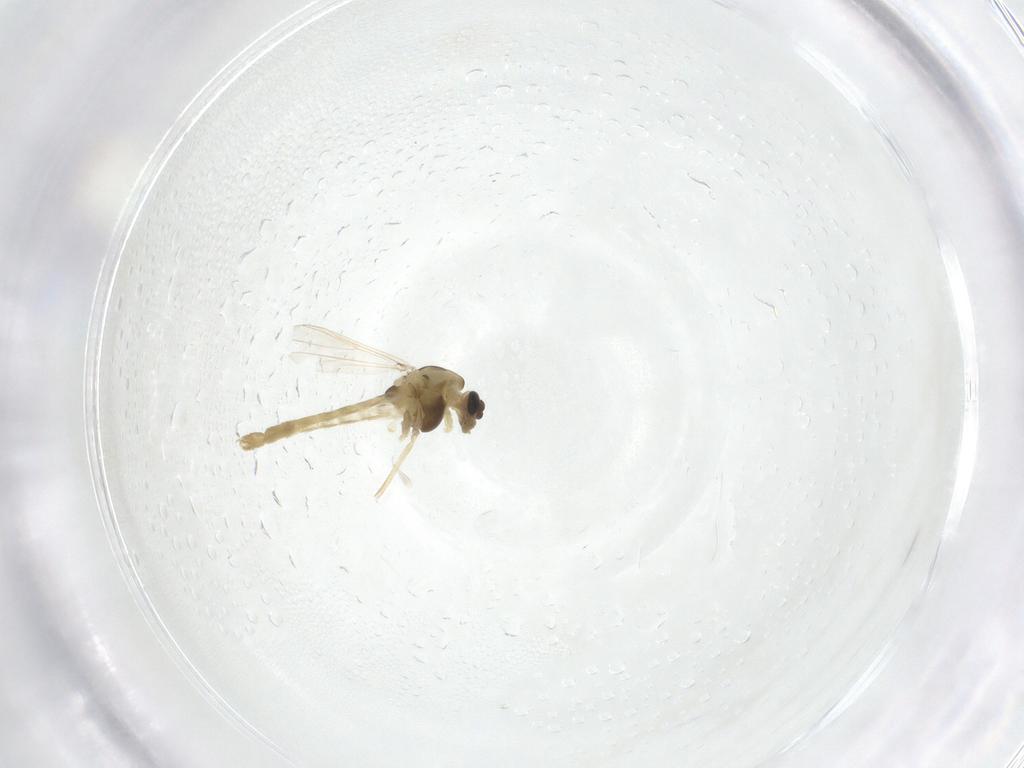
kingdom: Animalia
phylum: Arthropoda
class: Insecta
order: Diptera
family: Chironomidae
